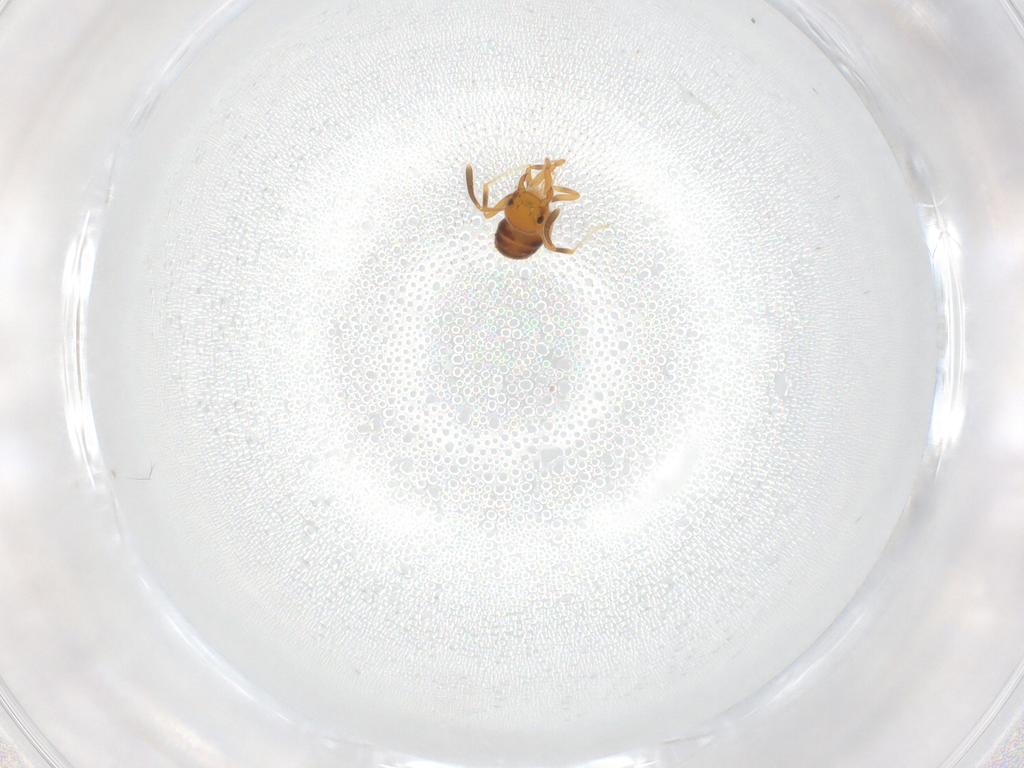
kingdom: Animalia
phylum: Arthropoda
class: Insecta
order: Hymenoptera
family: Formicidae
